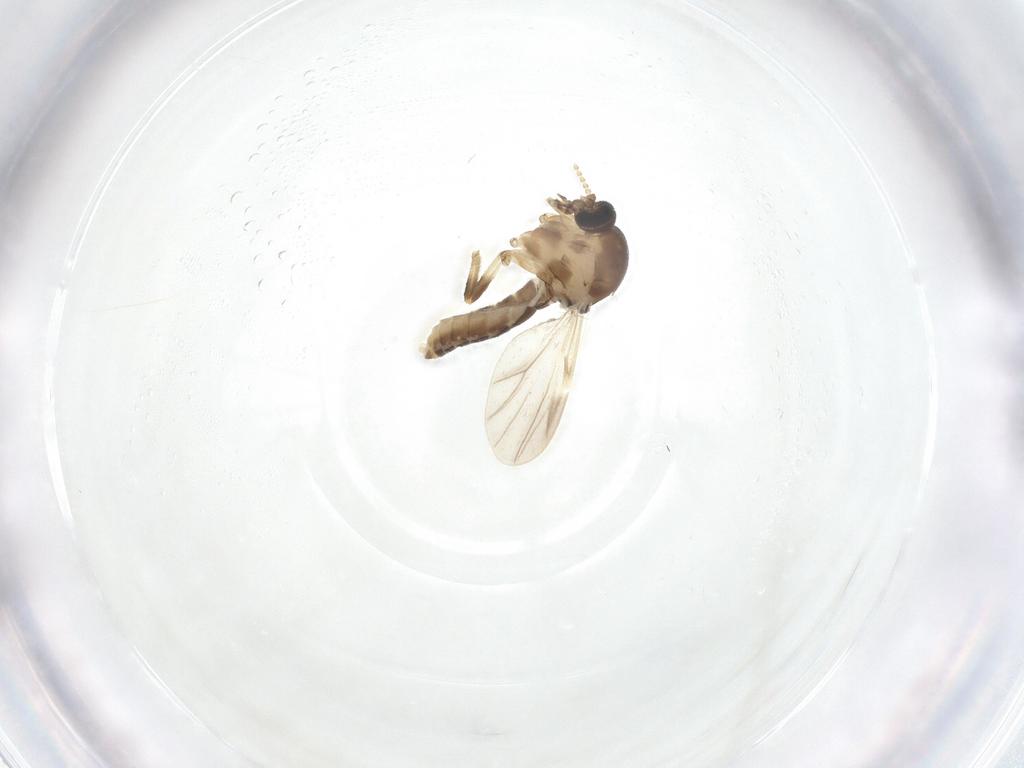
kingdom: Animalia
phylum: Arthropoda
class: Insecta
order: Diptera
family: Ceratopogonidae
